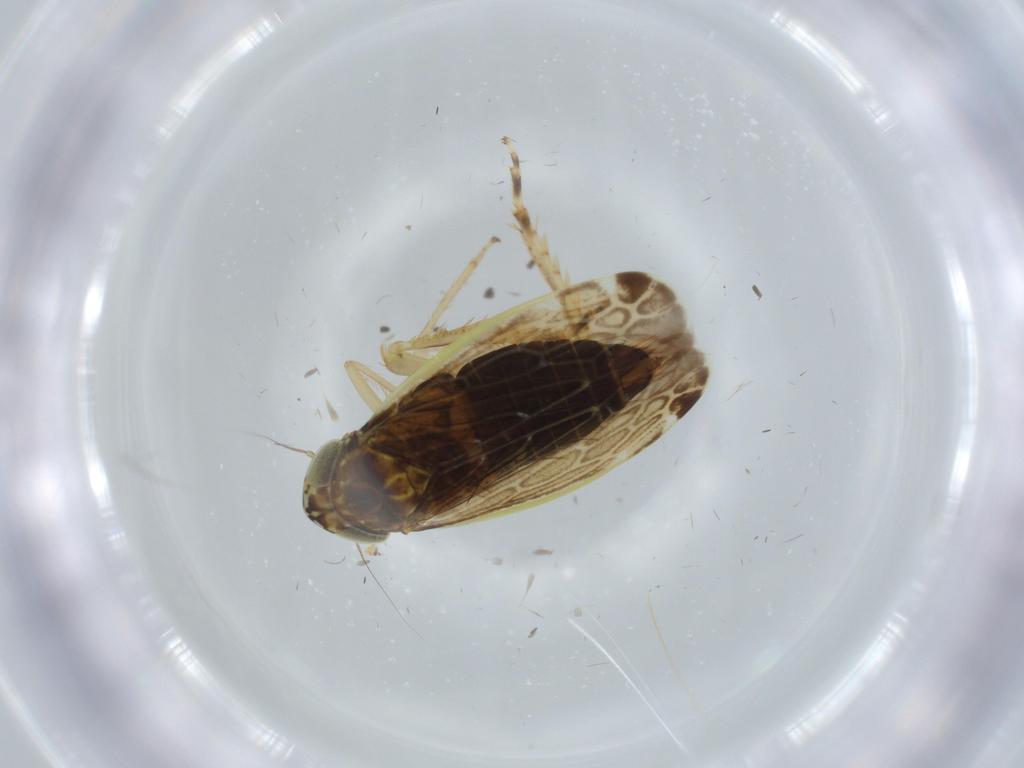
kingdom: Animalia
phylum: Arthropoda
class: Insecta
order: Hemiptera
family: Cicadellidae
